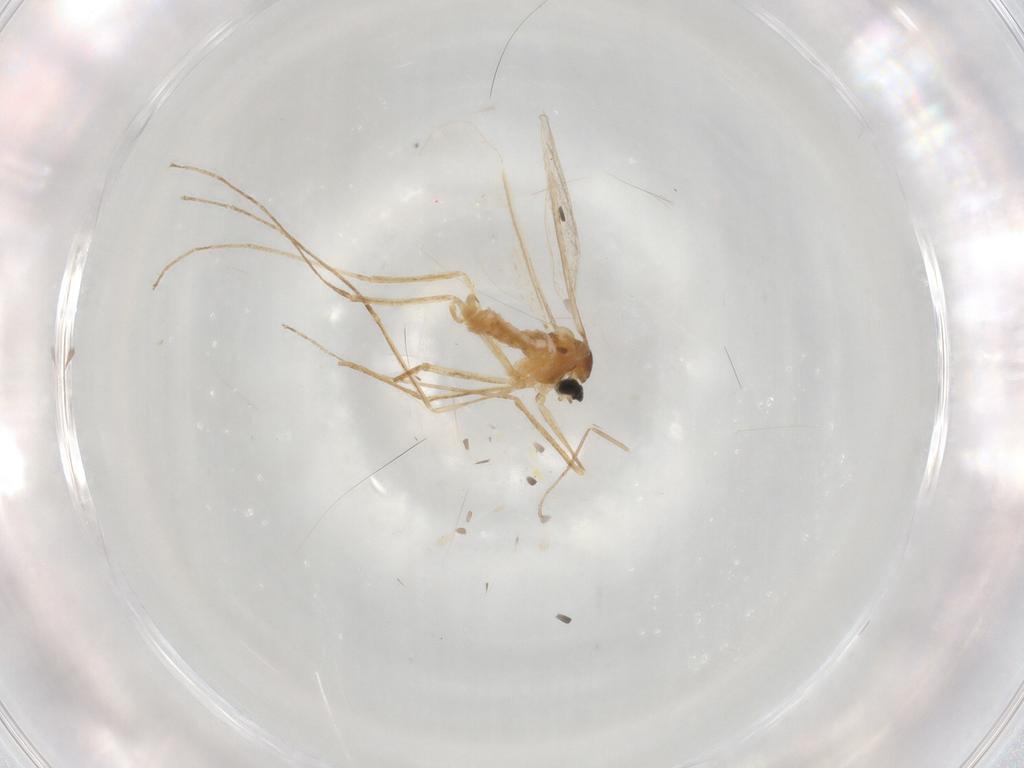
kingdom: Animalia
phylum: Arthropoda
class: Insecta
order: Diptera
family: Cecidomyiidae
